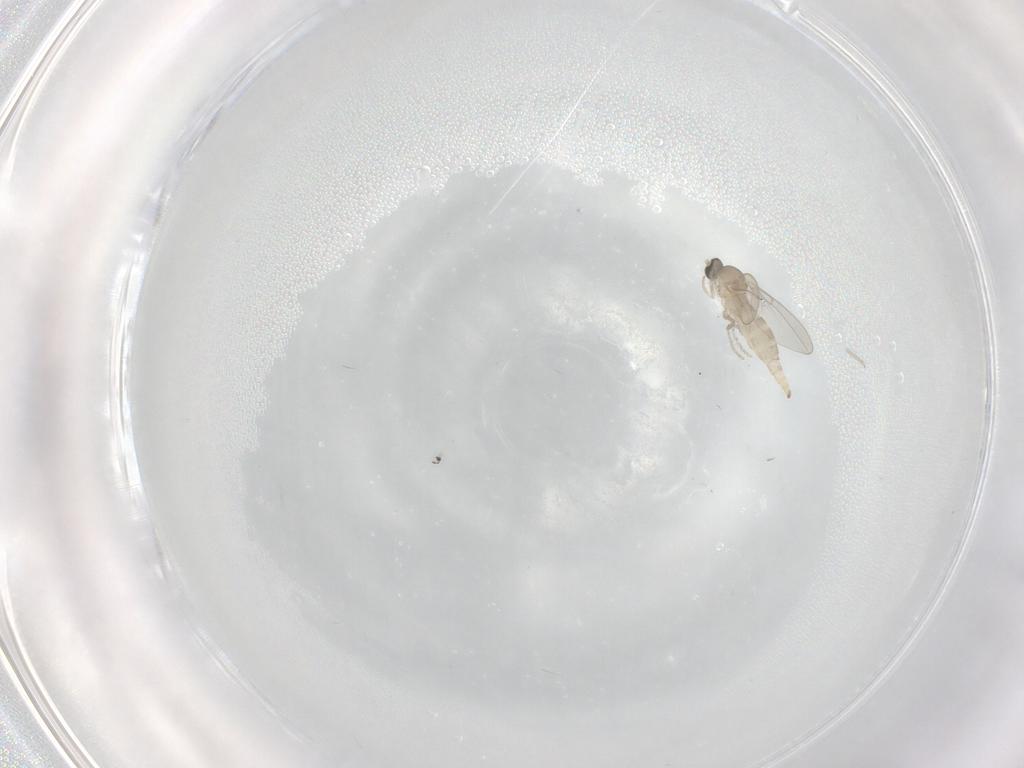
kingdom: Animalia
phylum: Arthropoda
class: Insecta
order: Diptera
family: Cecidomyiidae
